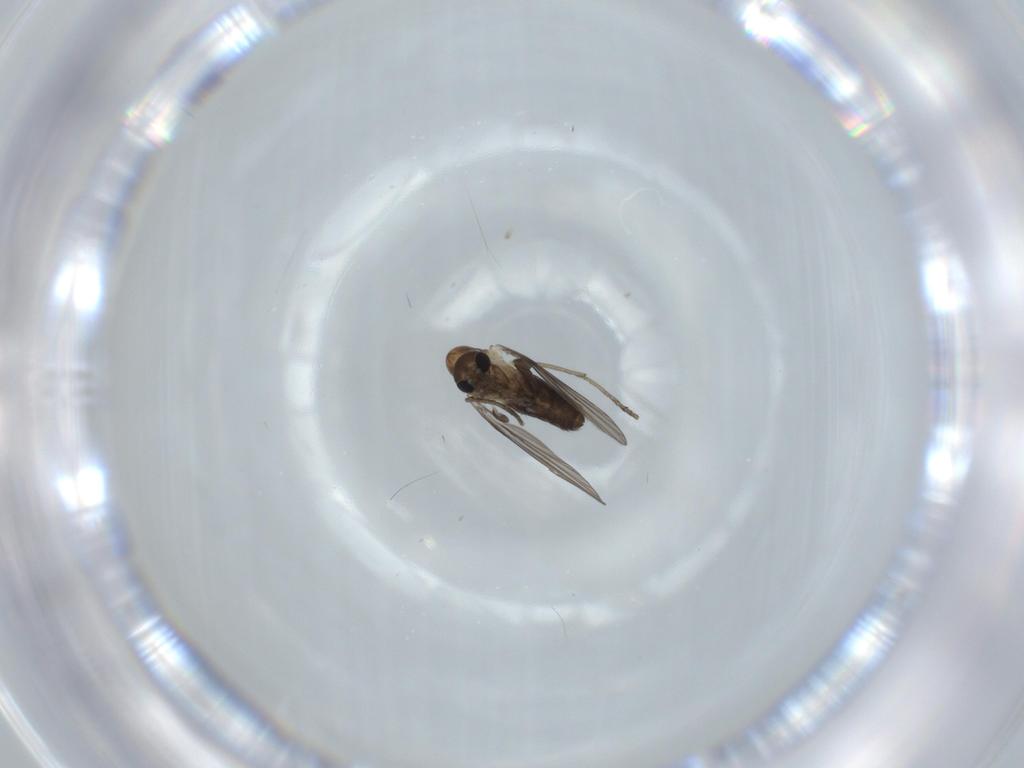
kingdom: Animalia
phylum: Arthropoda
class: Insecta
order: Diptera
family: Psychodidae
